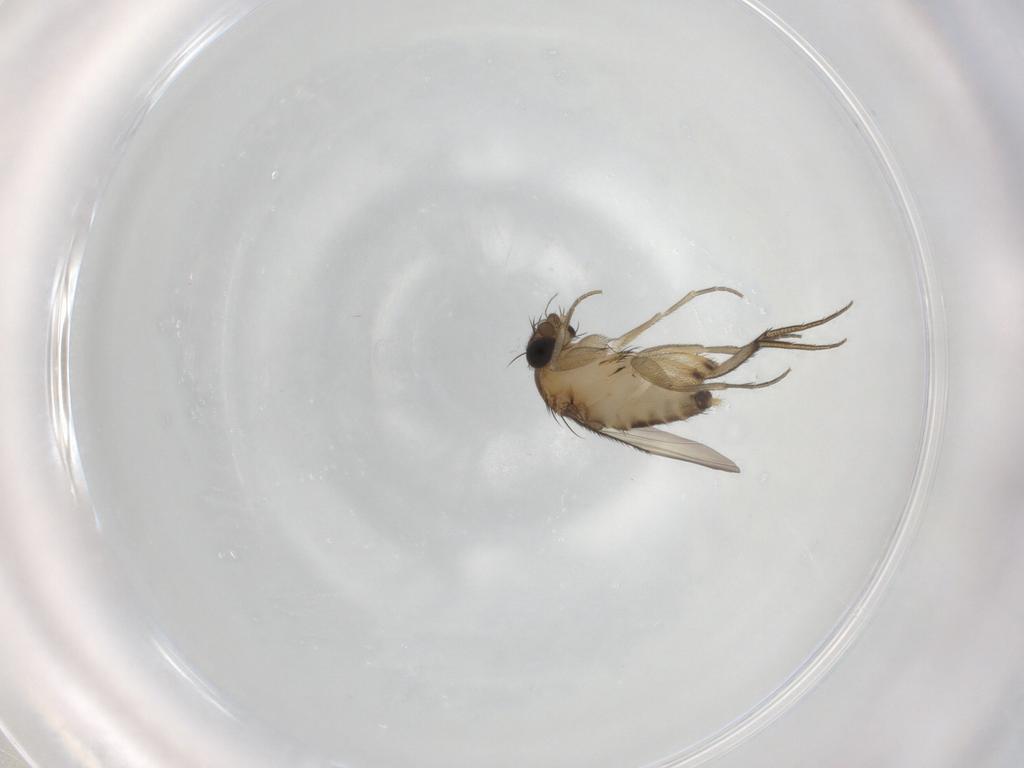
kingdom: Animalia
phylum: Arthropoda
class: Insecta
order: Diptera
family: Phoridae
